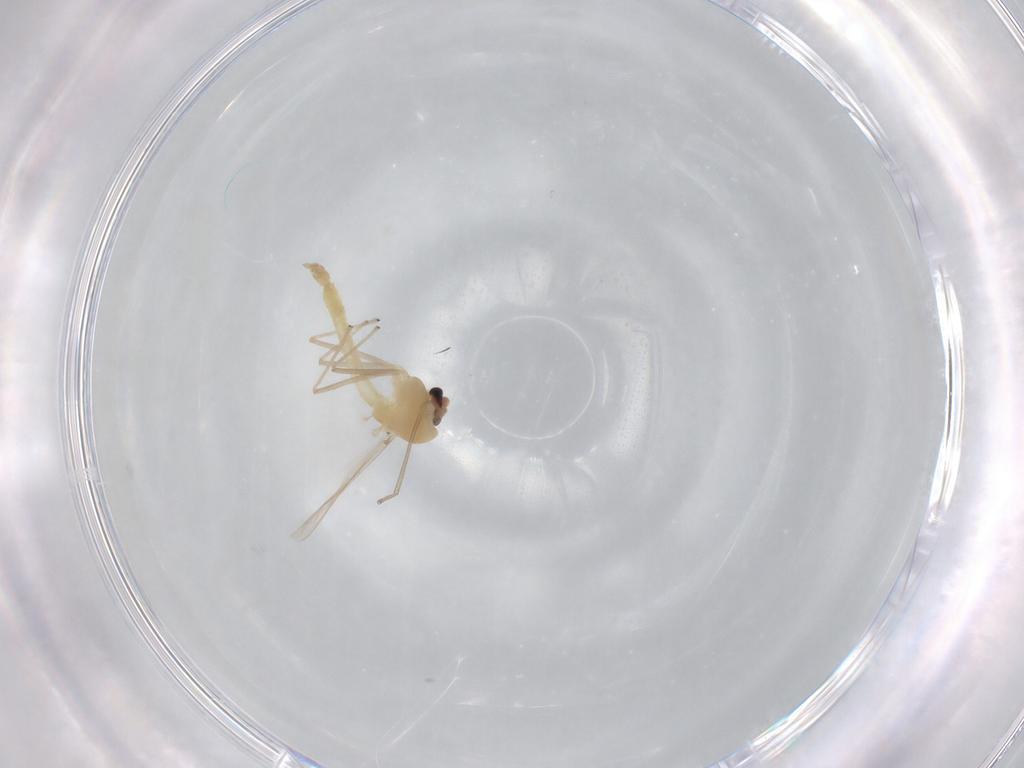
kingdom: Animalia
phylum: Arthropoda
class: Insecta
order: Diptera
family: Chironomidae
